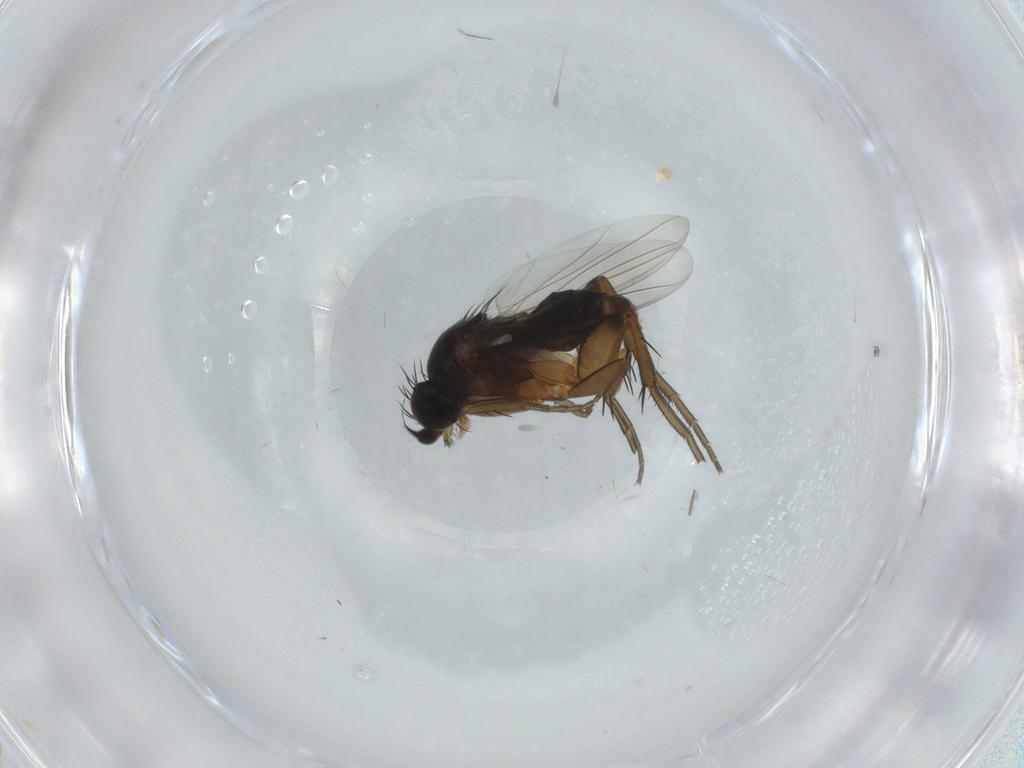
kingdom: Animalia
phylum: Arthropoda
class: Insecta
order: Diptera
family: Phoridae
